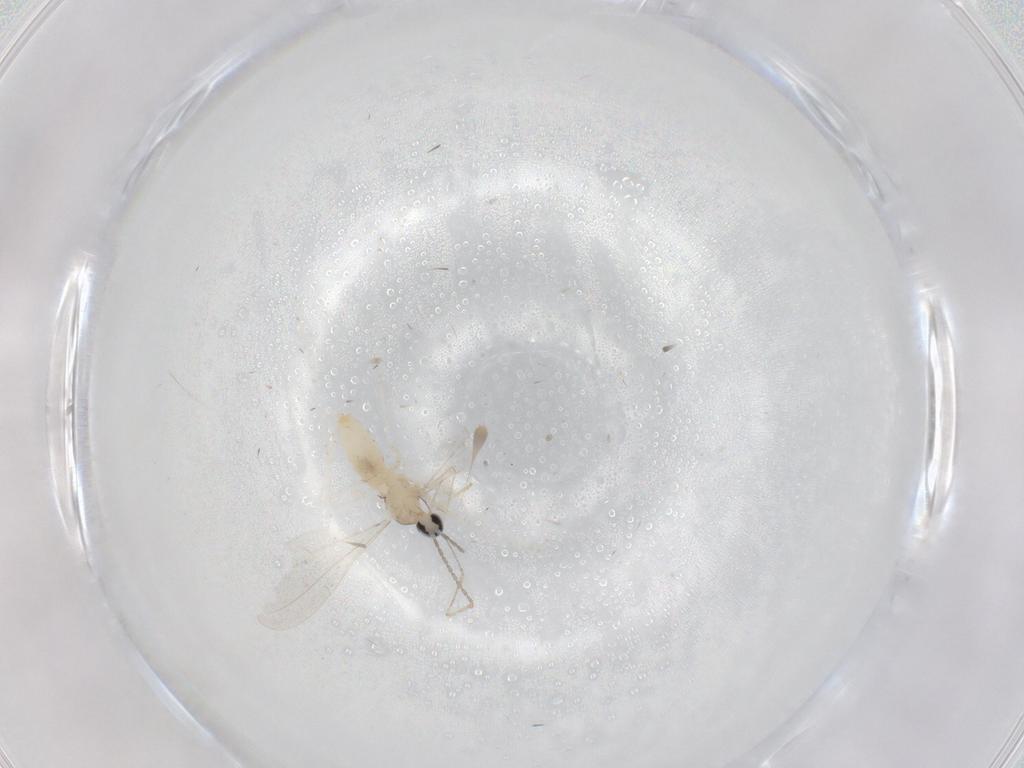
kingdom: Animalia
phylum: Arthropoda
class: Insecta
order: Diptera
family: Cecidomyiidae
